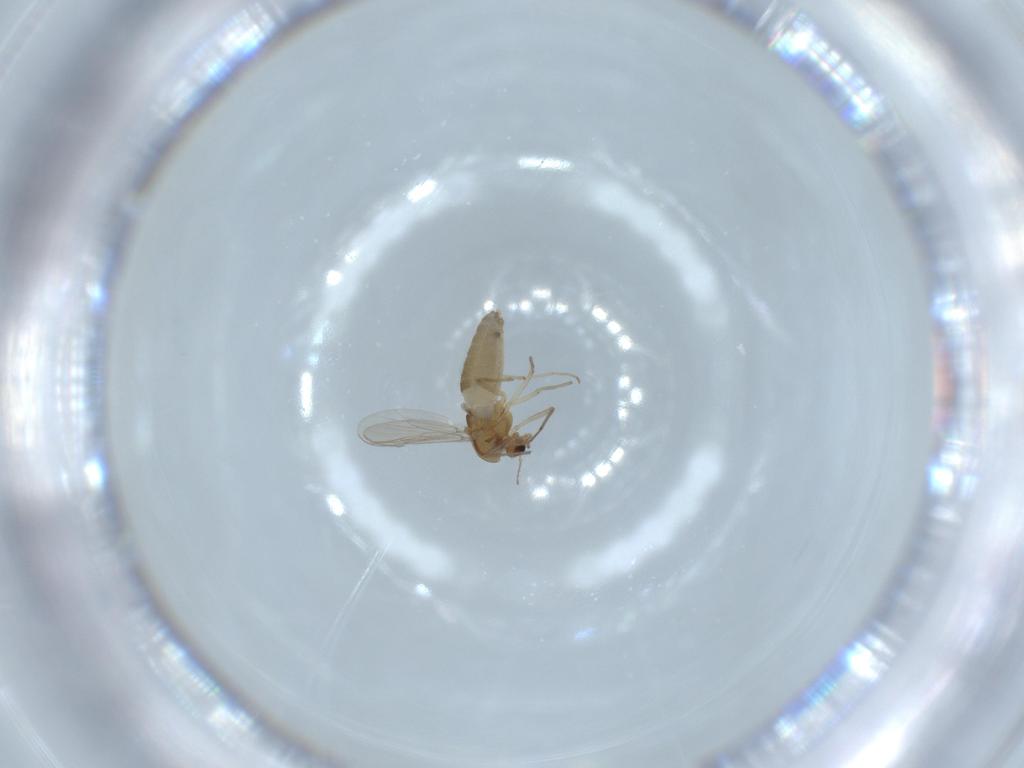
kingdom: Animalia
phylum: Arthropoda
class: Insecta
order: Diptera
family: Chironomidae
